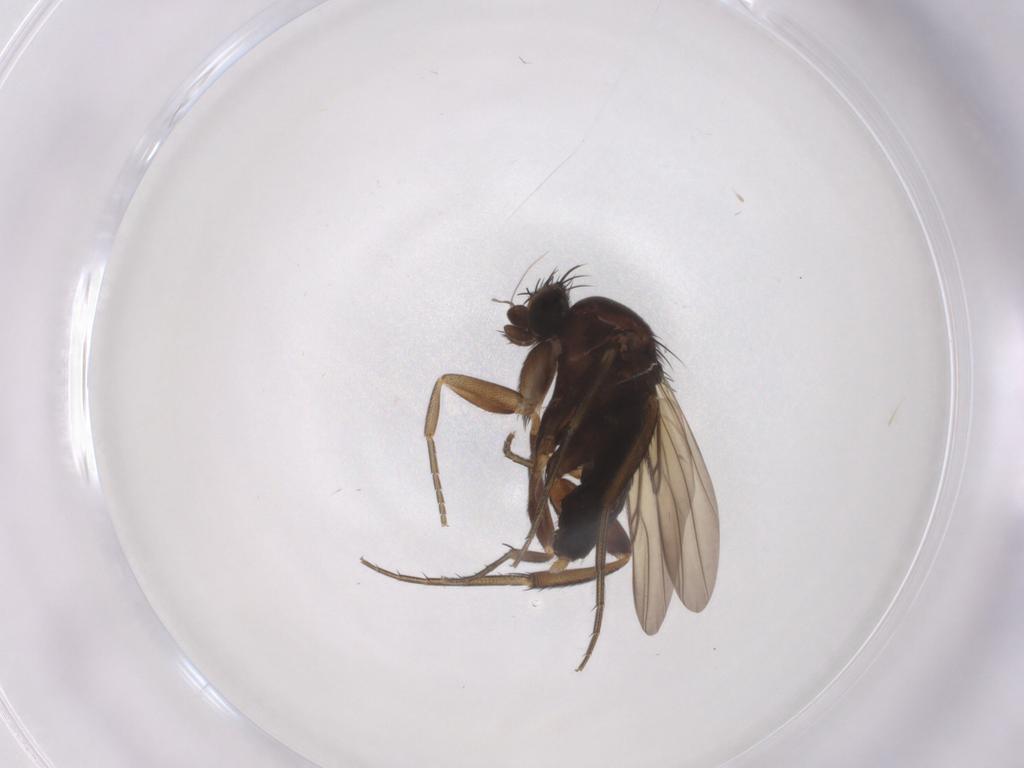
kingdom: Animalia
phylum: Arthropoda
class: Insecta
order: Diptera
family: Phoridae
